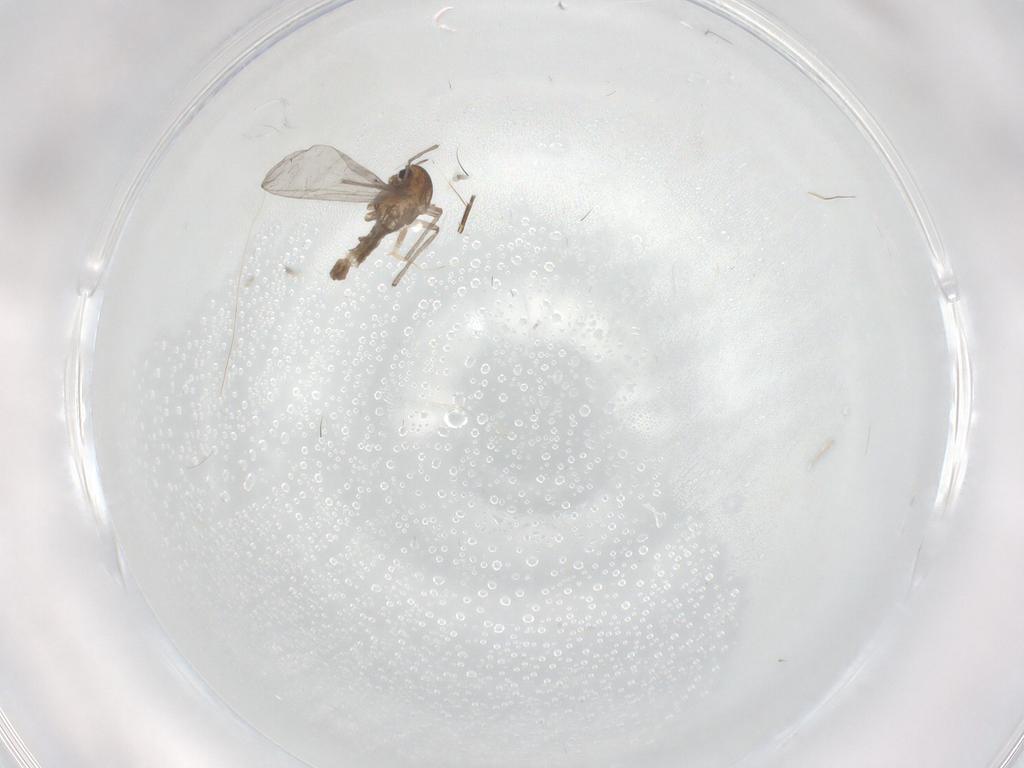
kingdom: Animalia
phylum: Arthropoda
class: Insecta
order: Diptera
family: Chironomidae
